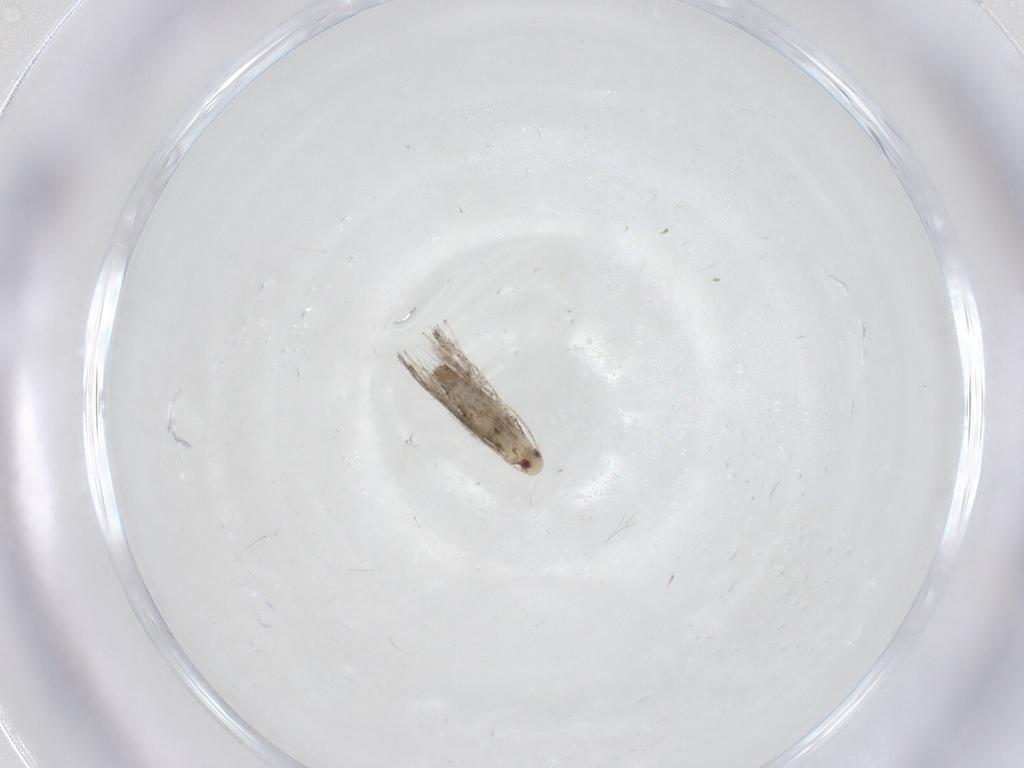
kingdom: Animalia
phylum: Arthropoda
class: Insecta
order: Lepidoptera
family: Gracillariidae
